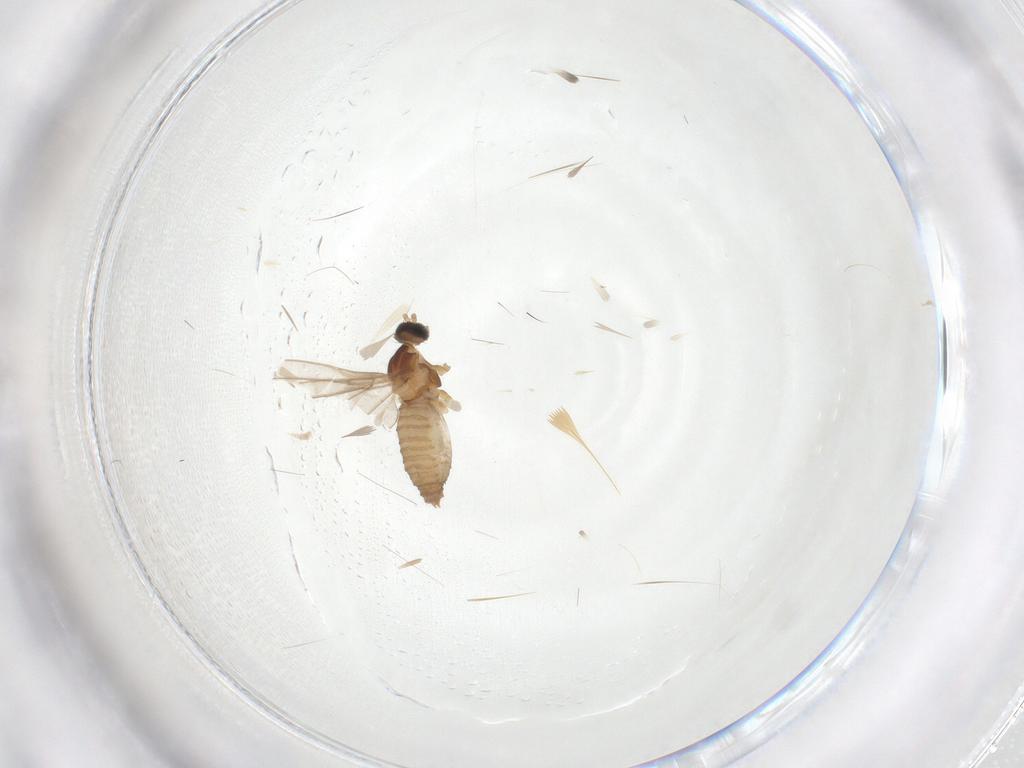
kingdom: Animalia
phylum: Arthropoda
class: Insecta
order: Diptera
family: Cecidomyiidae
